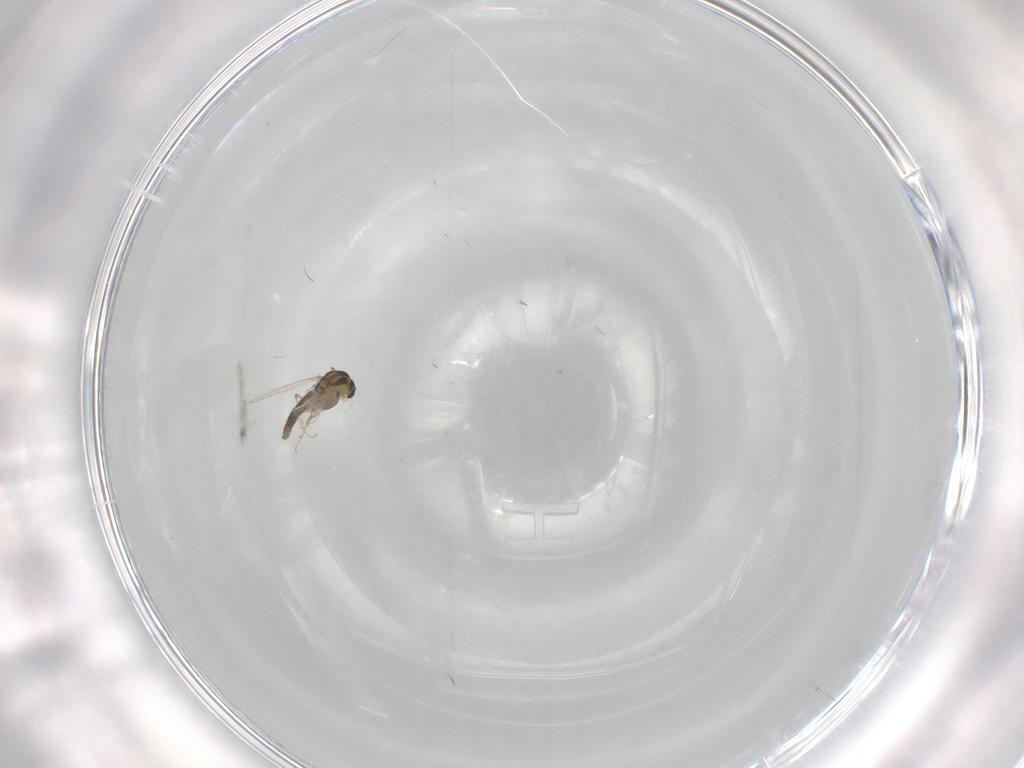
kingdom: Animalia
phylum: Arthropoda
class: Insecta
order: Diptera
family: Chironomidae
